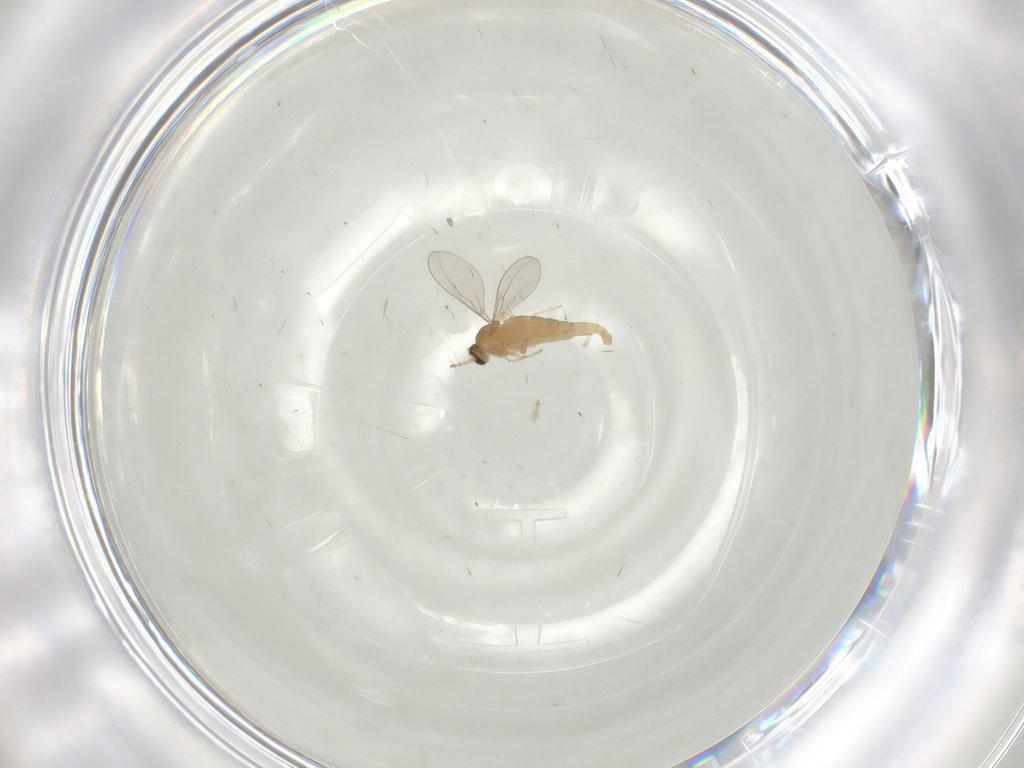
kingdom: Animalia
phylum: Arthropoda
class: Insecta
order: Diptera
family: Cecidomyiidae
